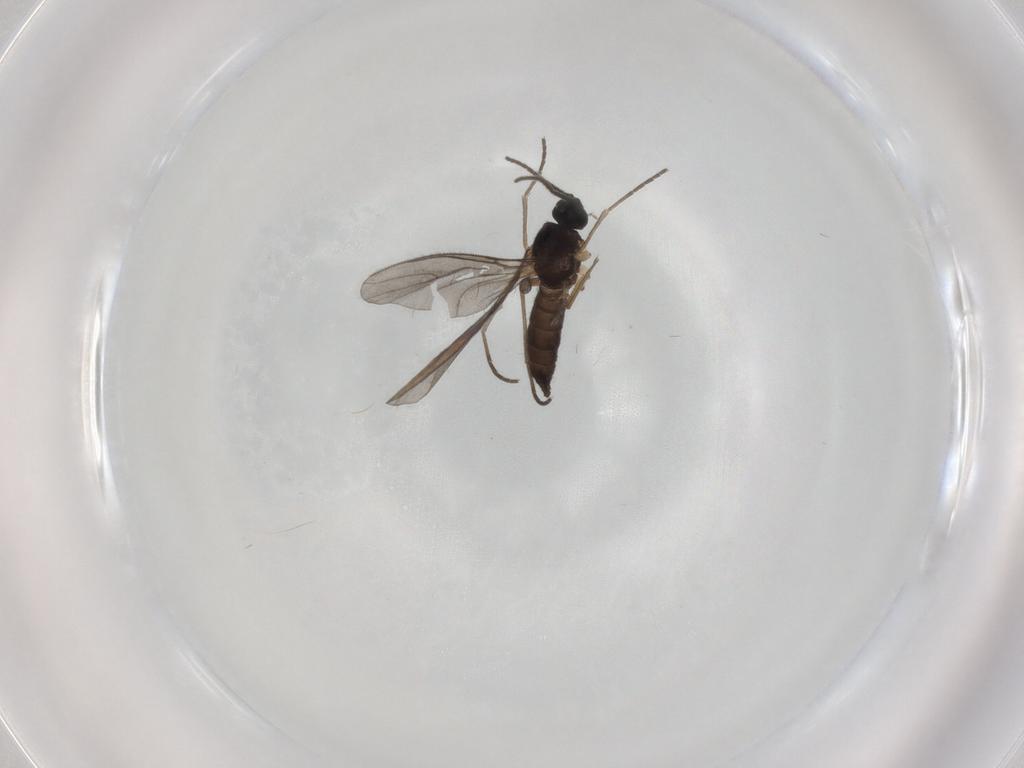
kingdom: Animalia
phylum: Arthropoda
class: Insecta
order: Diptera
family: Sciaridae
